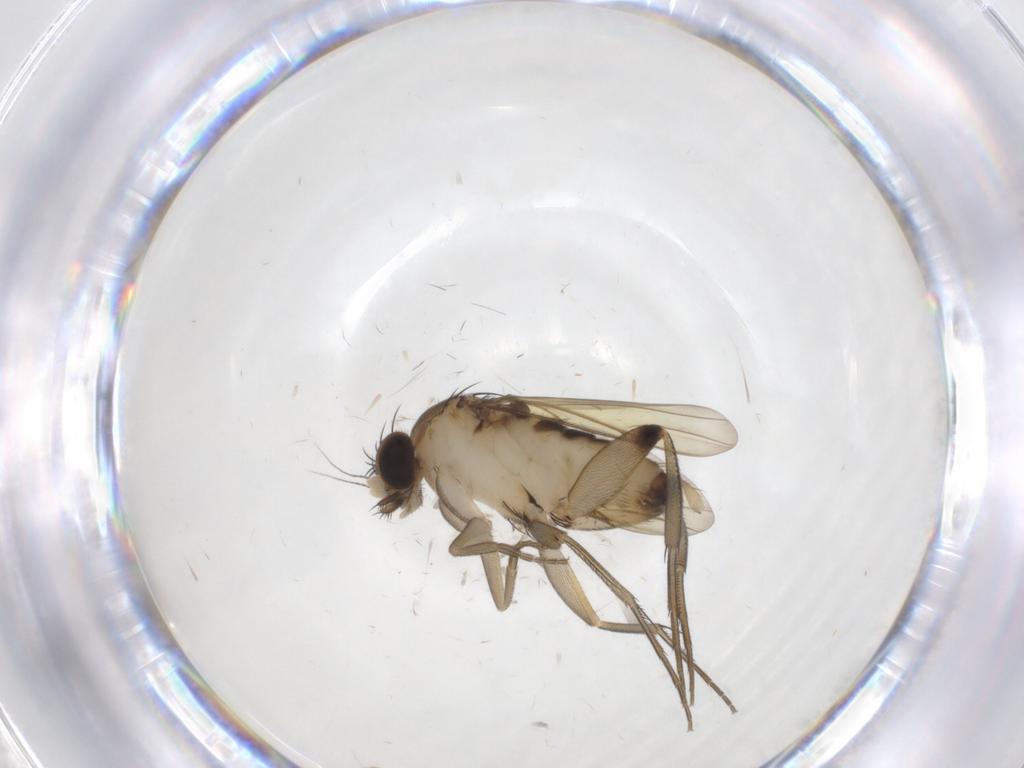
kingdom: Animalia
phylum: Arthropoda
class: Insecta
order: Diptera
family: Phoridae
